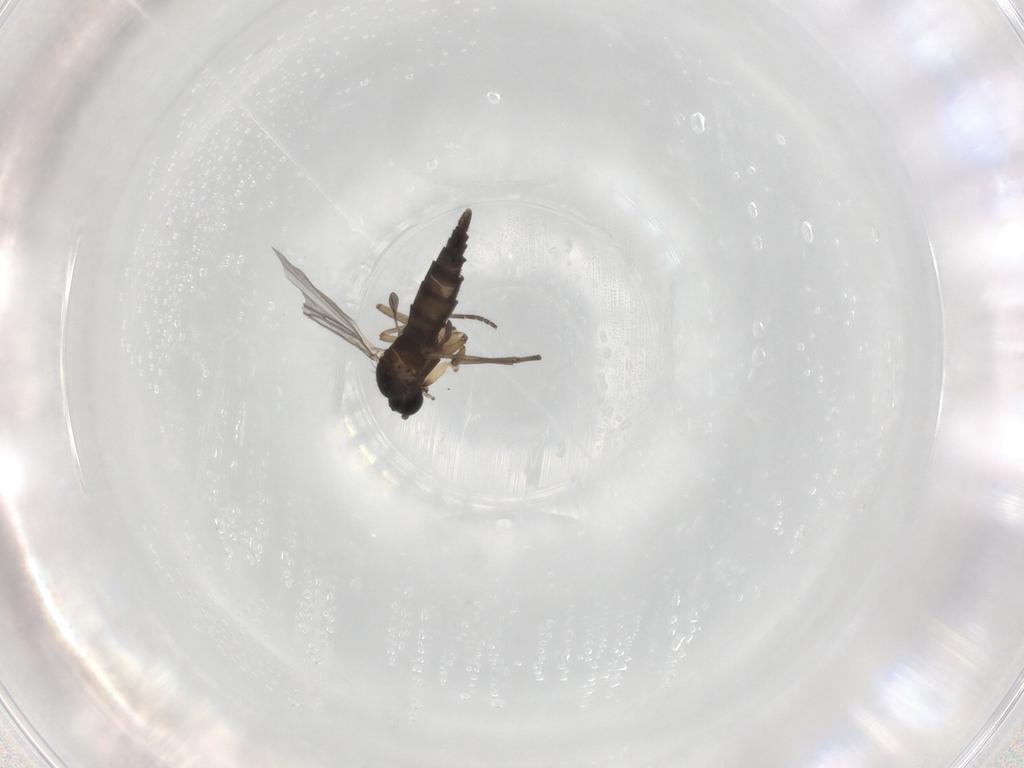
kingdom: Animalia
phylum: Arthropoda
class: Insecta
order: Diptera
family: Sciaridae
